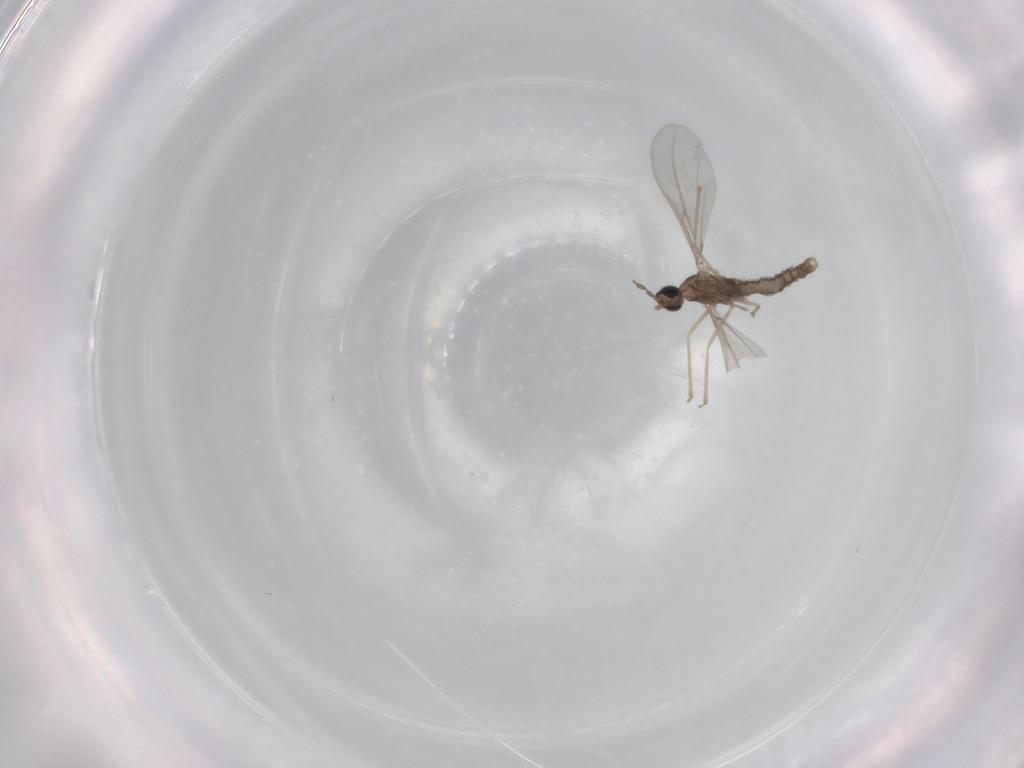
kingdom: Animalia
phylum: Arthropoda
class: Insecta
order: Diptera
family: Cecidomyiidae
